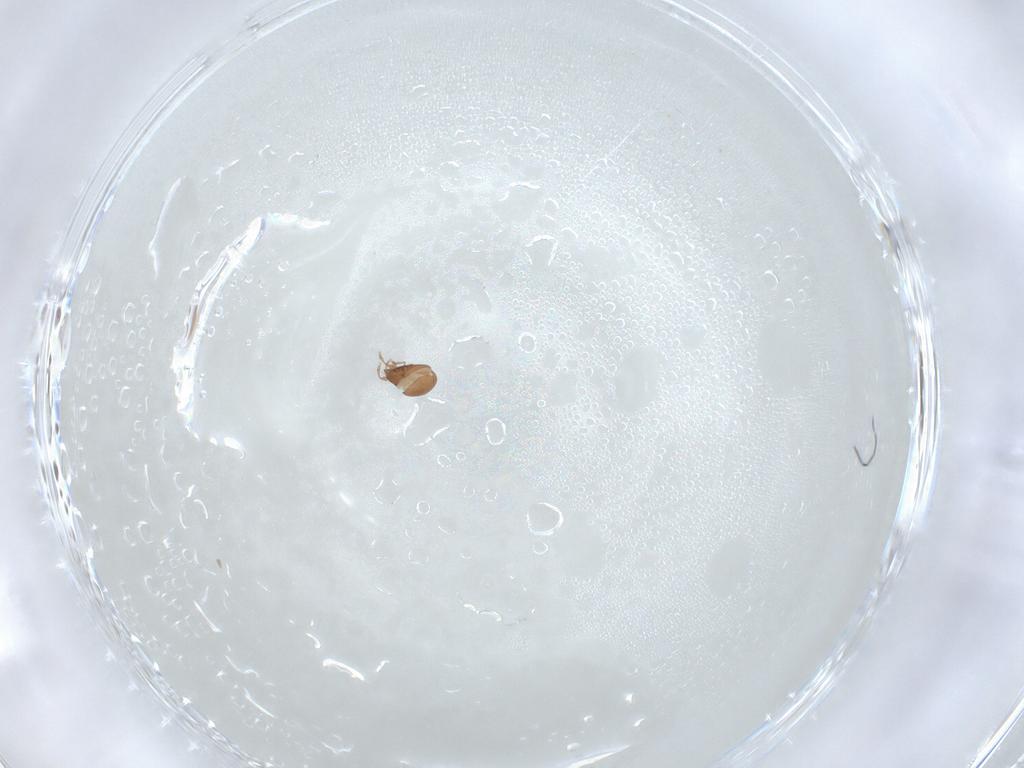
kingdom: Animalia
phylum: Arthropoda
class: Arachnida
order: Sarcoptiformes
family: Scheloribatidae
